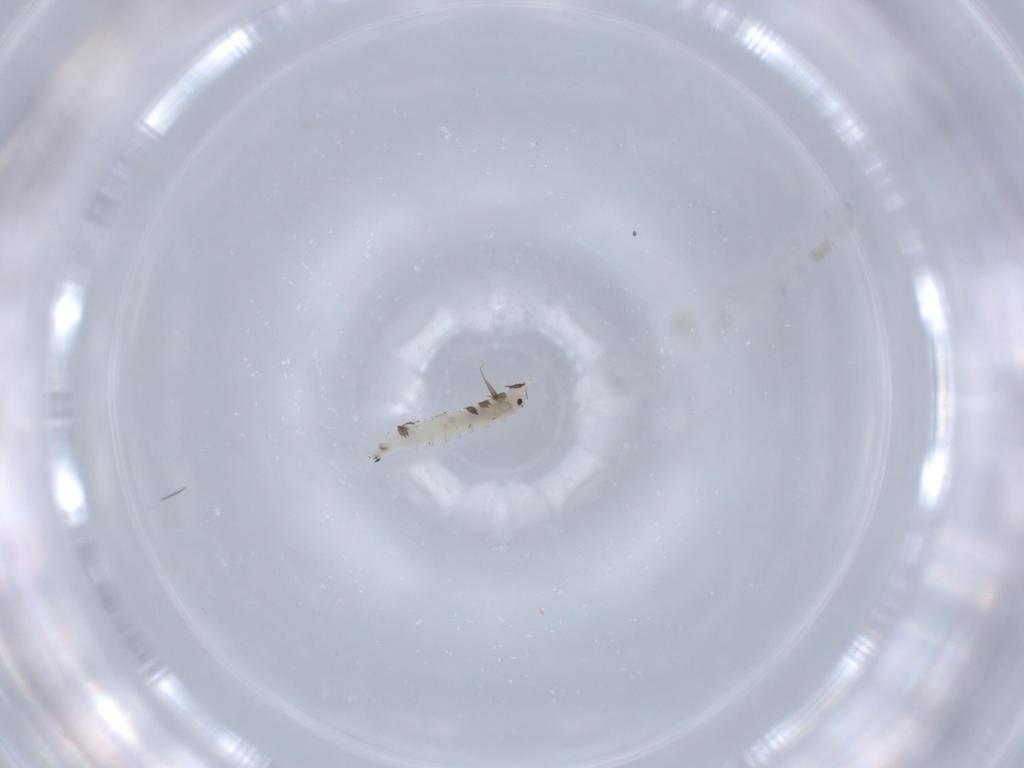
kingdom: Animalia
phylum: Arthropoda
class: Insecta
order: Diptera
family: Drosophilidae
